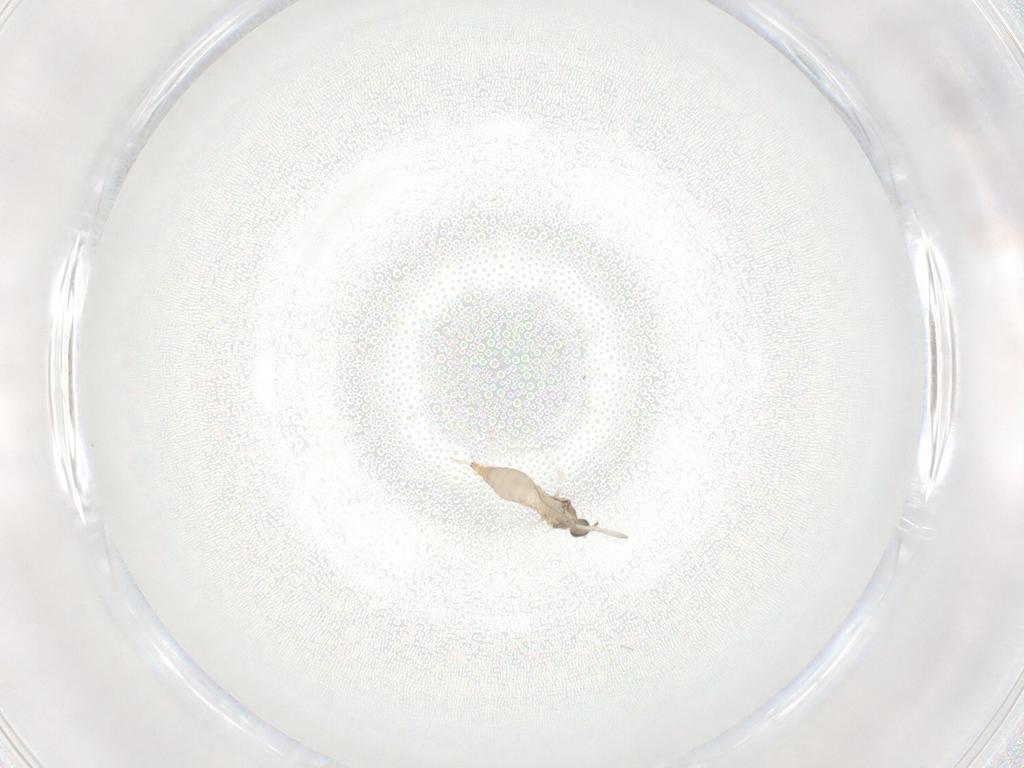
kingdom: Animalia
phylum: Arthropoda
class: Insecta
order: Diptera
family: Cecidomyiidae
